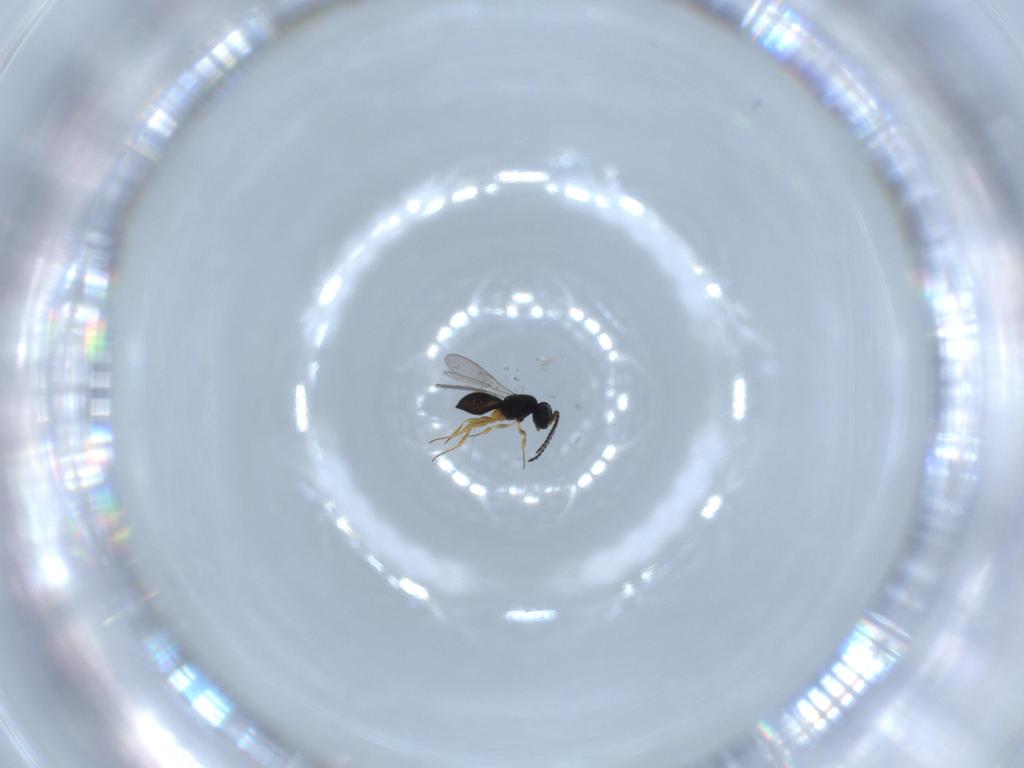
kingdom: Animalia
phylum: Arthropoda
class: Insecta
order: Hymenoptera
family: Scelionidae
